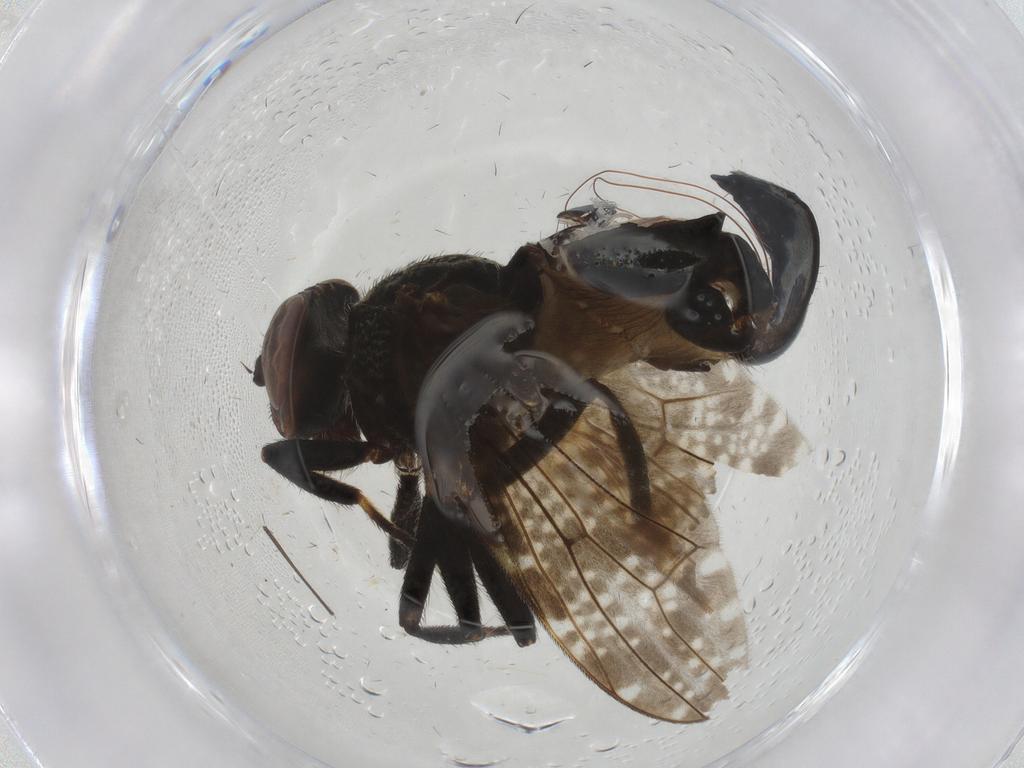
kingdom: Animalia
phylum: Arthropoda
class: Insecta
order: Diptera
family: Platystomatidae
